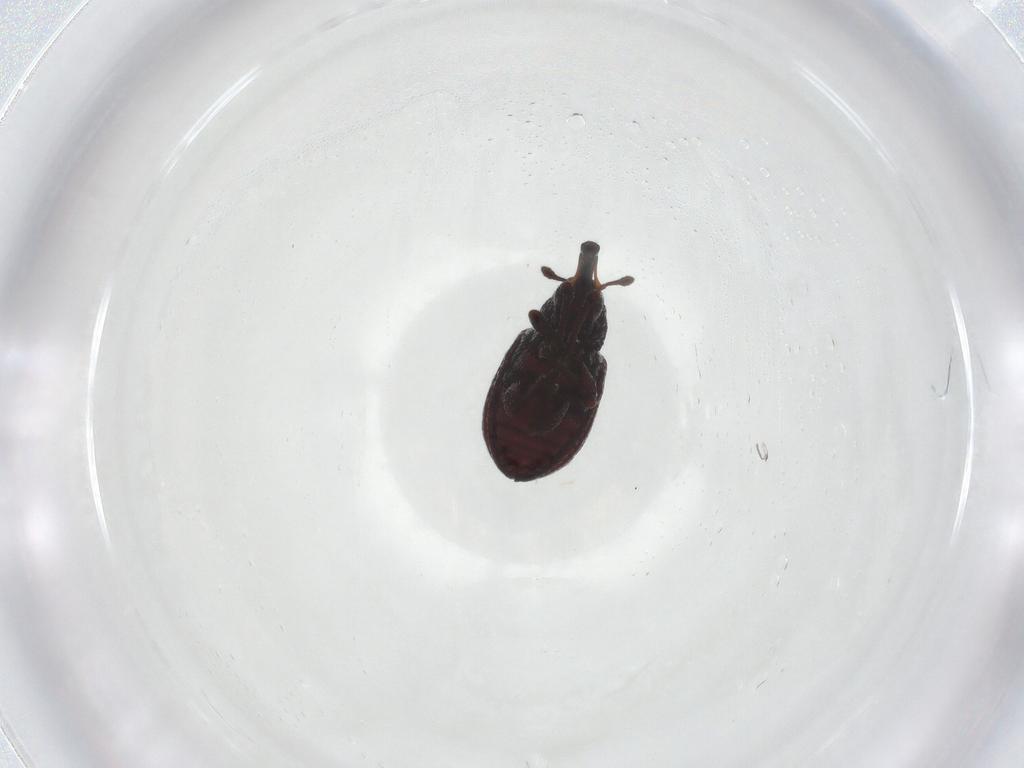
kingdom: Animalia
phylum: Arthropoda
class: Insecta
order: Coleoptera
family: Curculionidae
